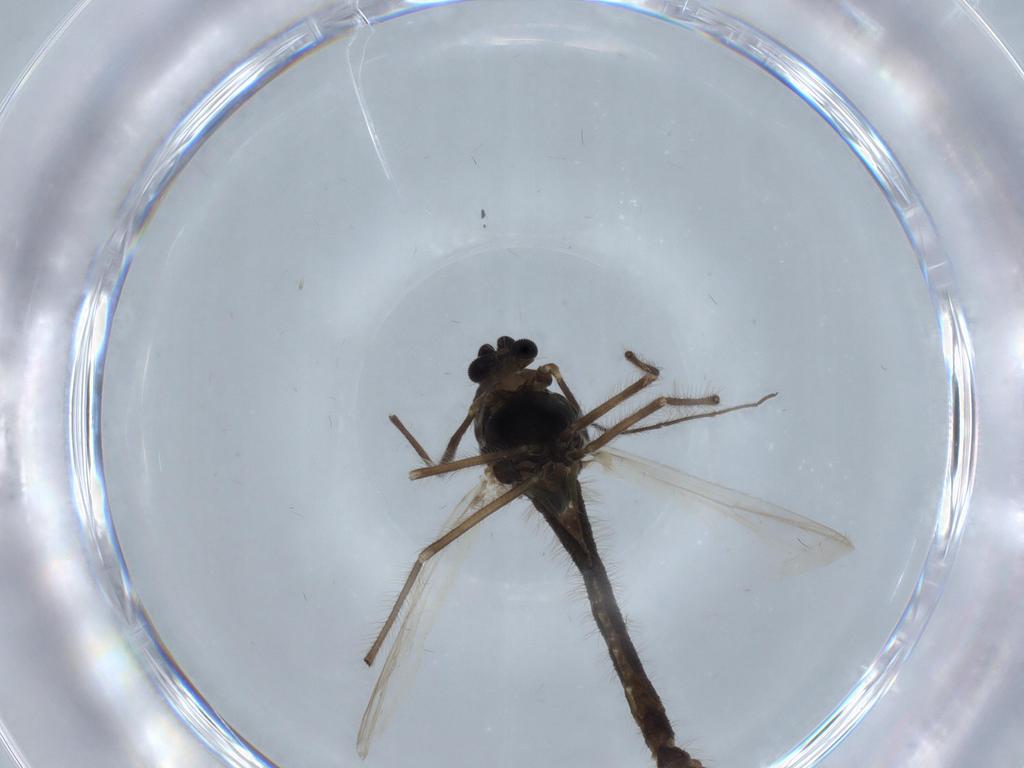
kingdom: Animalia
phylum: Arthropoda
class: Insecta
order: Diptera
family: Chironomidae
